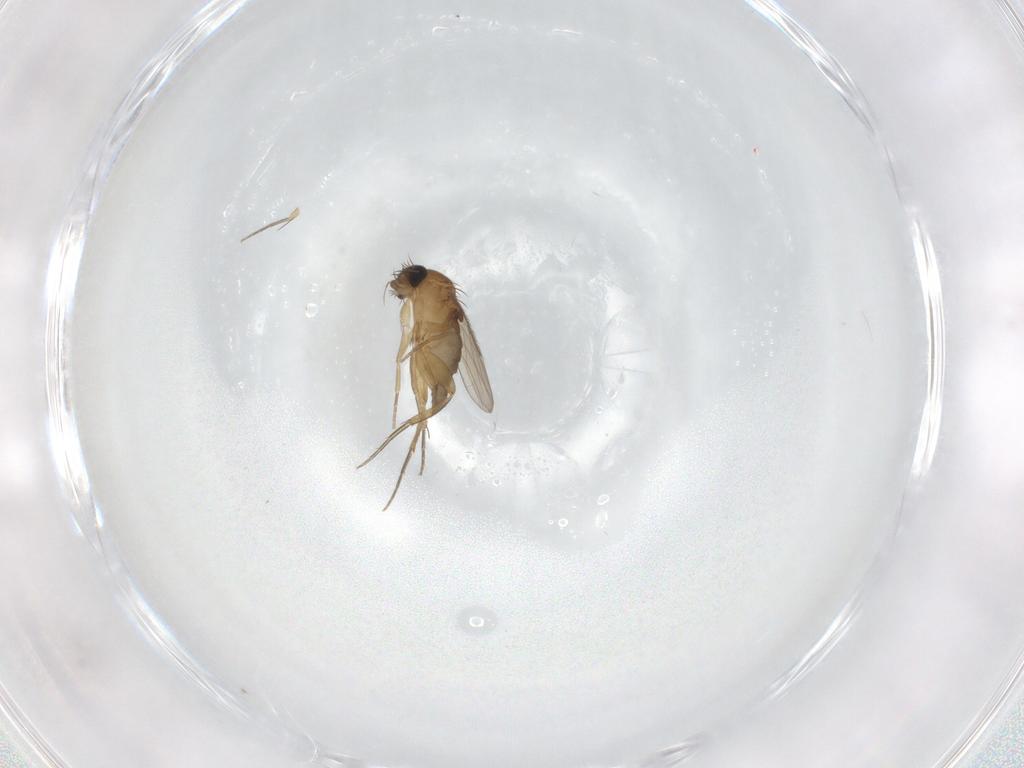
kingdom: Animalia
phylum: Arthropoda
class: Insecta
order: Diptera
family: Phoridae
